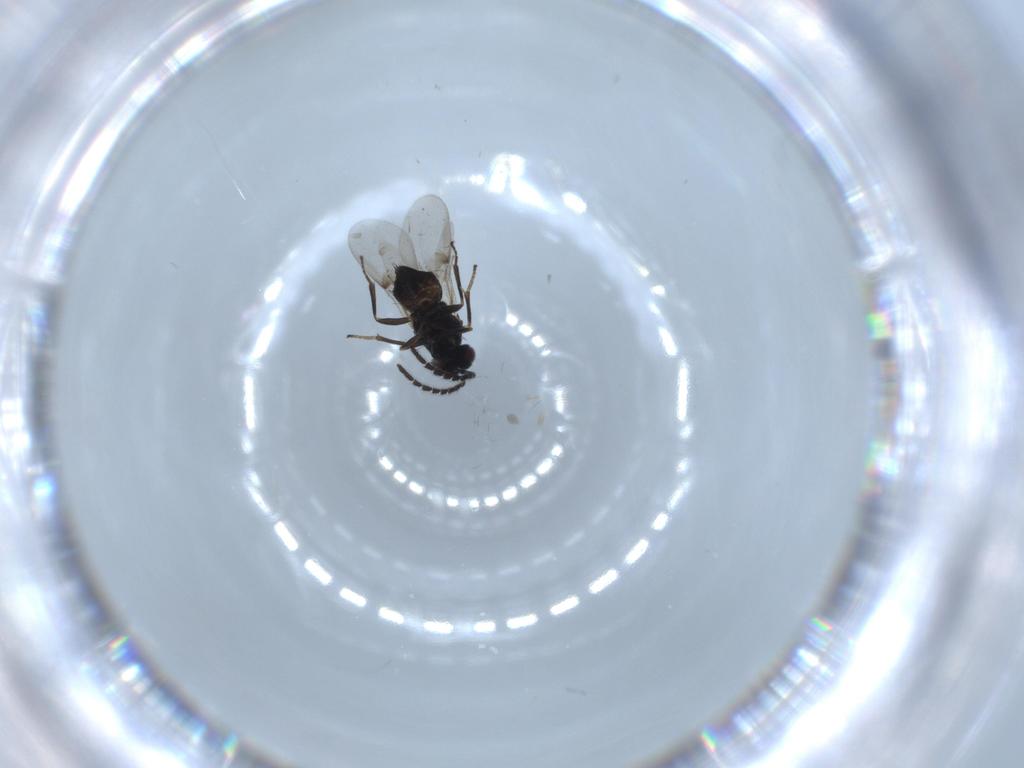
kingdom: Animalia
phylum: Arthropoda
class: Insecta
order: Hymenoptera
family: Encyrtidae
